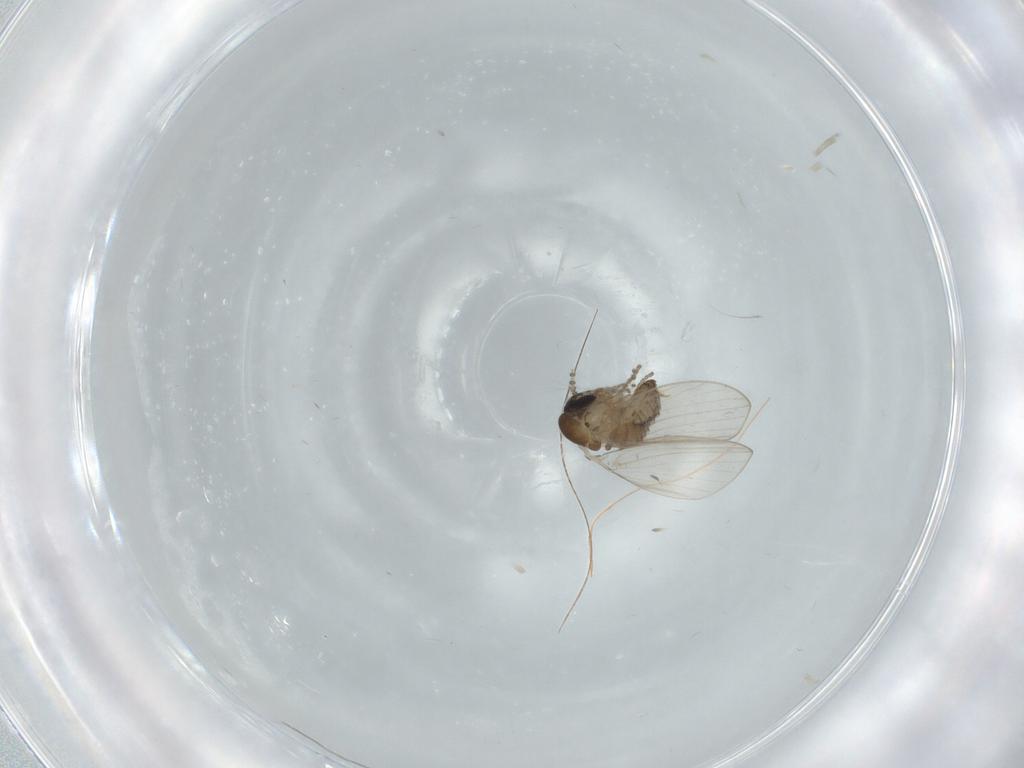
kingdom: Animalia
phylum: Arthropoda
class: Insecta
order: Diptera
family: Psychodidae
